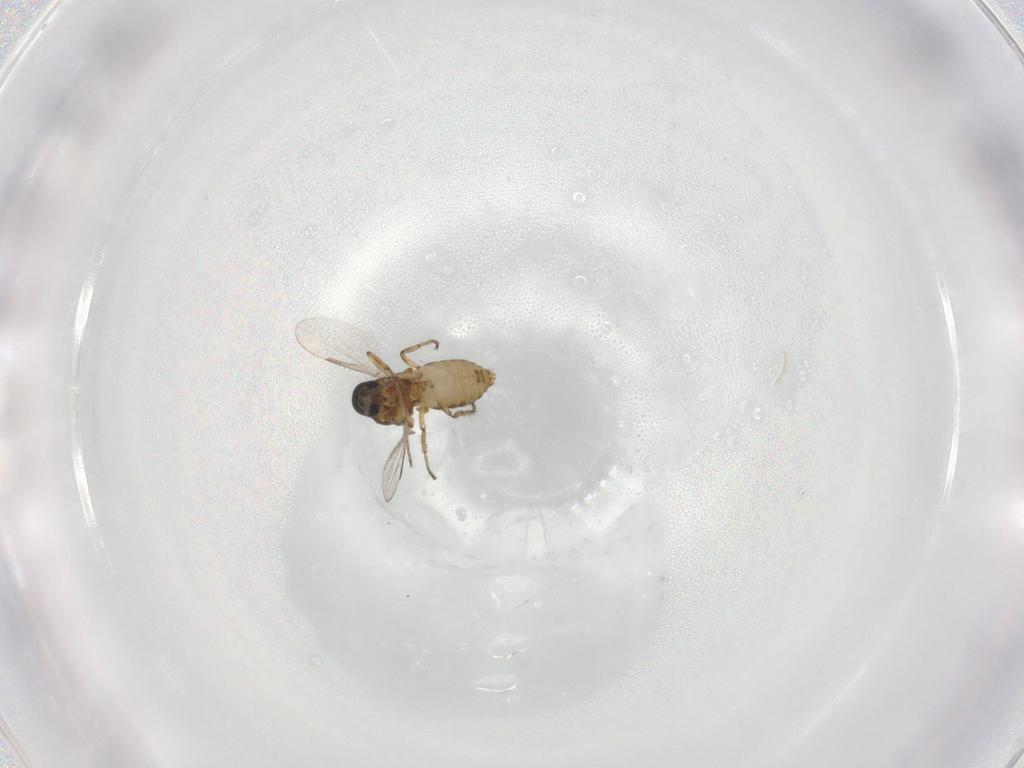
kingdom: Animalia
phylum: Arthropoda
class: Insecta
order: Diptera
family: Ceratopogonidae
